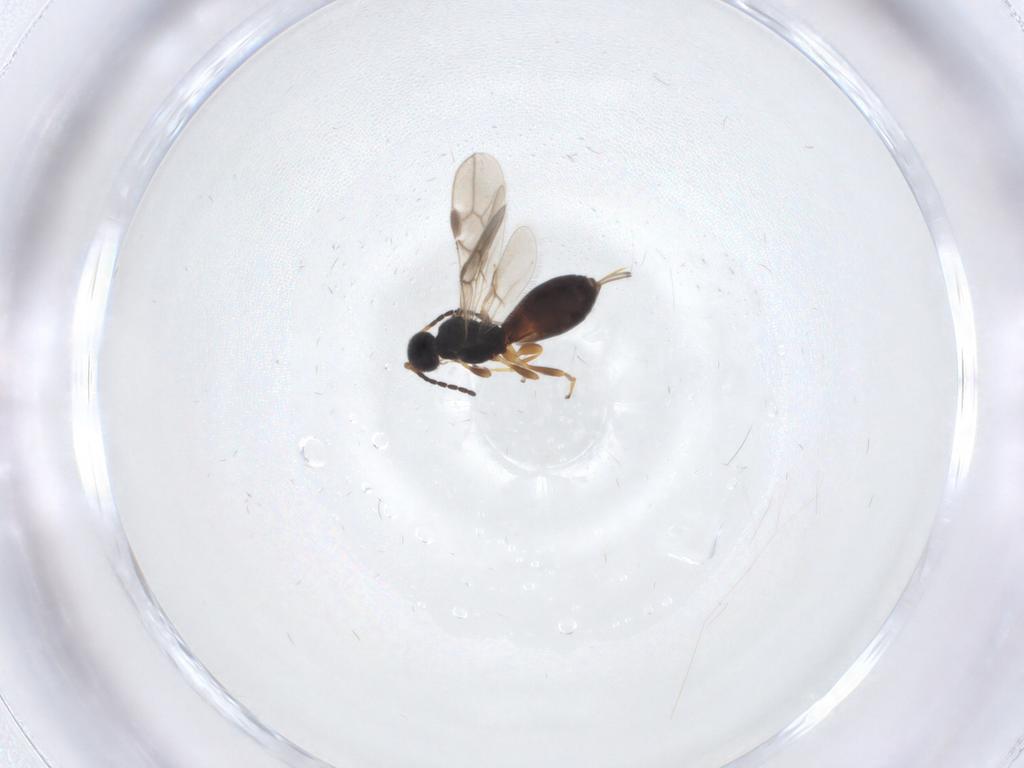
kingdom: Animalia
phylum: Arthropoda
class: Insecta
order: Hymenoptera
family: Braconidae
